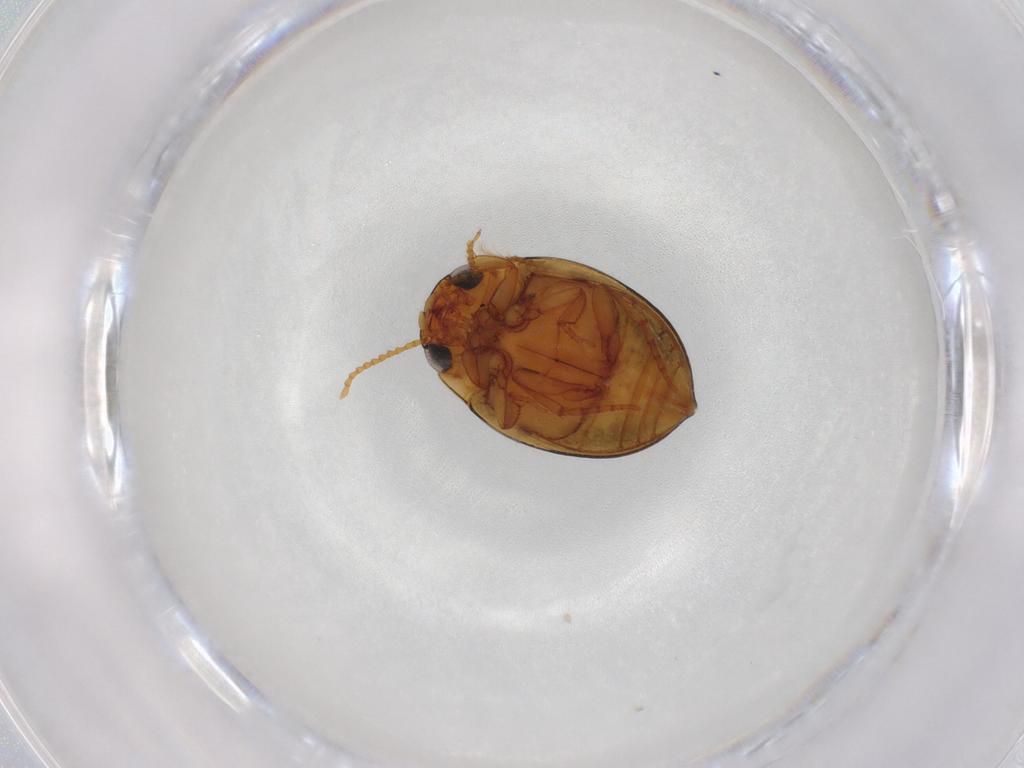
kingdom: Animalia
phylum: Arthropoda
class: Insecta
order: Coleoptera
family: Dytiscidae
